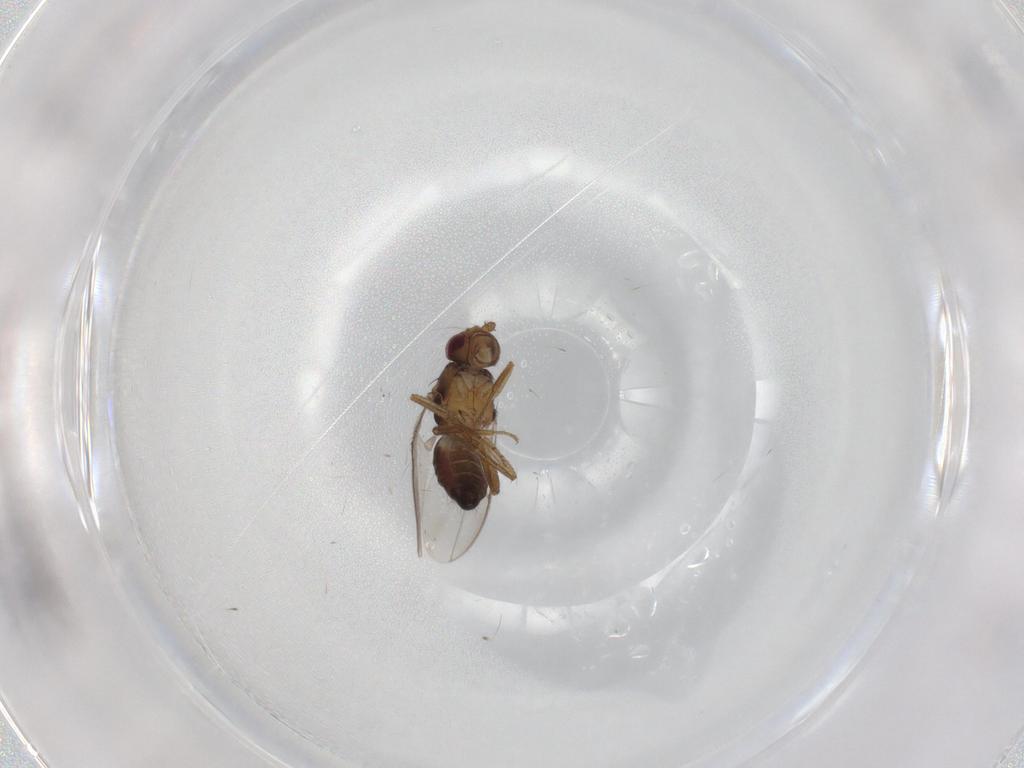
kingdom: Animalia
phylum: Arthropoda
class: Insecta
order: Diptera
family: Sphaeroceridae
